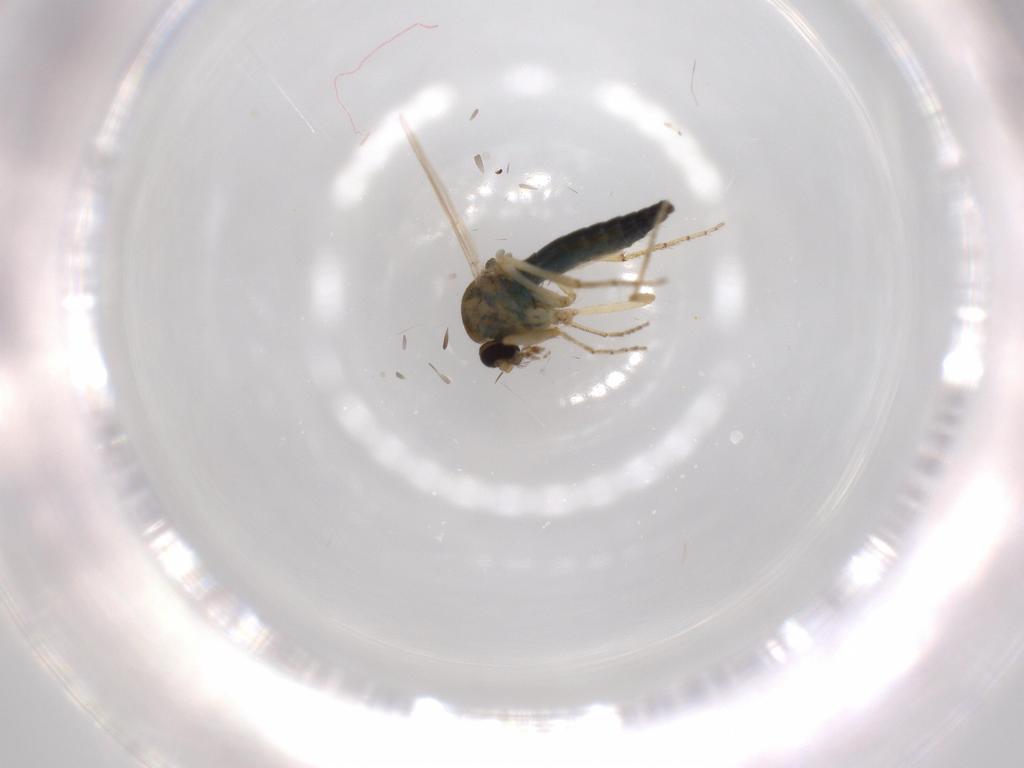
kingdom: Animalia
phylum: Arthropoda
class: Insecta
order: Diptera
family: Ceratopogonidae
